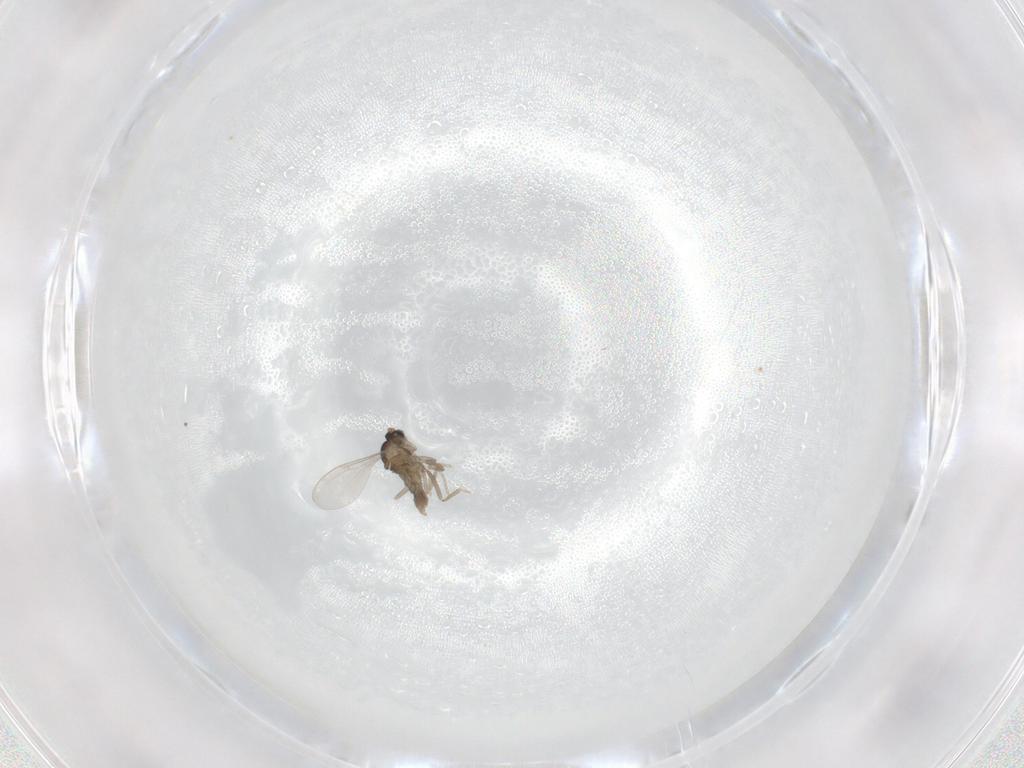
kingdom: Animalia
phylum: Arthropoda
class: Insecta
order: Diptera
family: Cecidomyiidae
